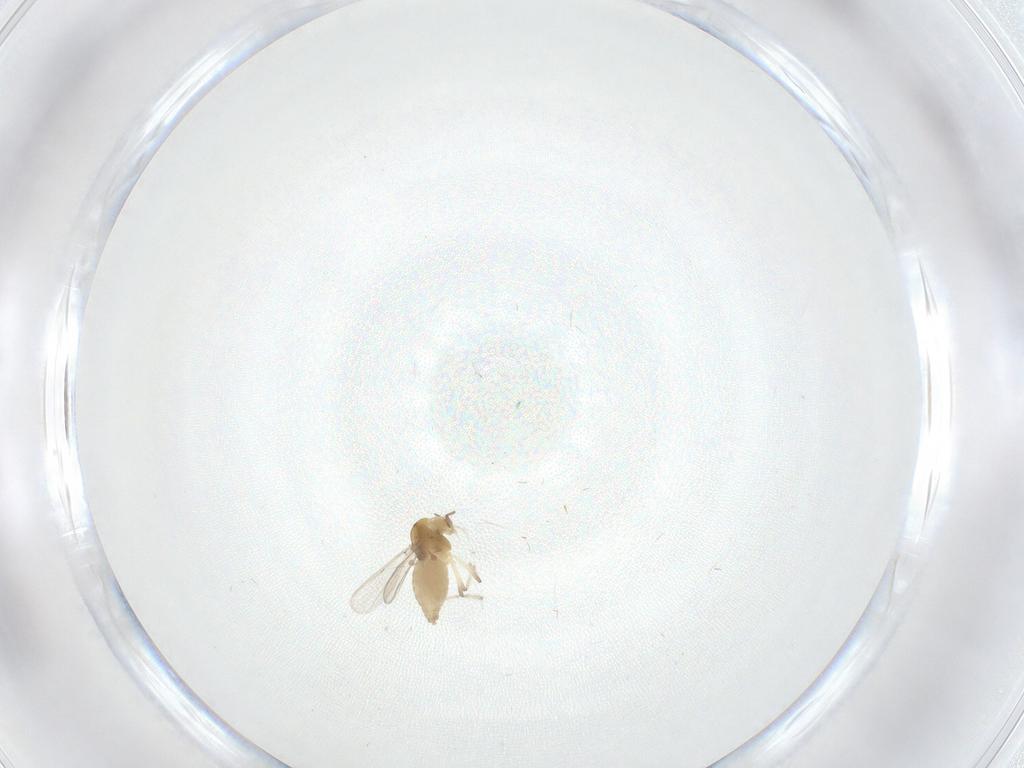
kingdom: Animalia
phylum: Arthropoda
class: Insecta
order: Diptera
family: Chironomidae
